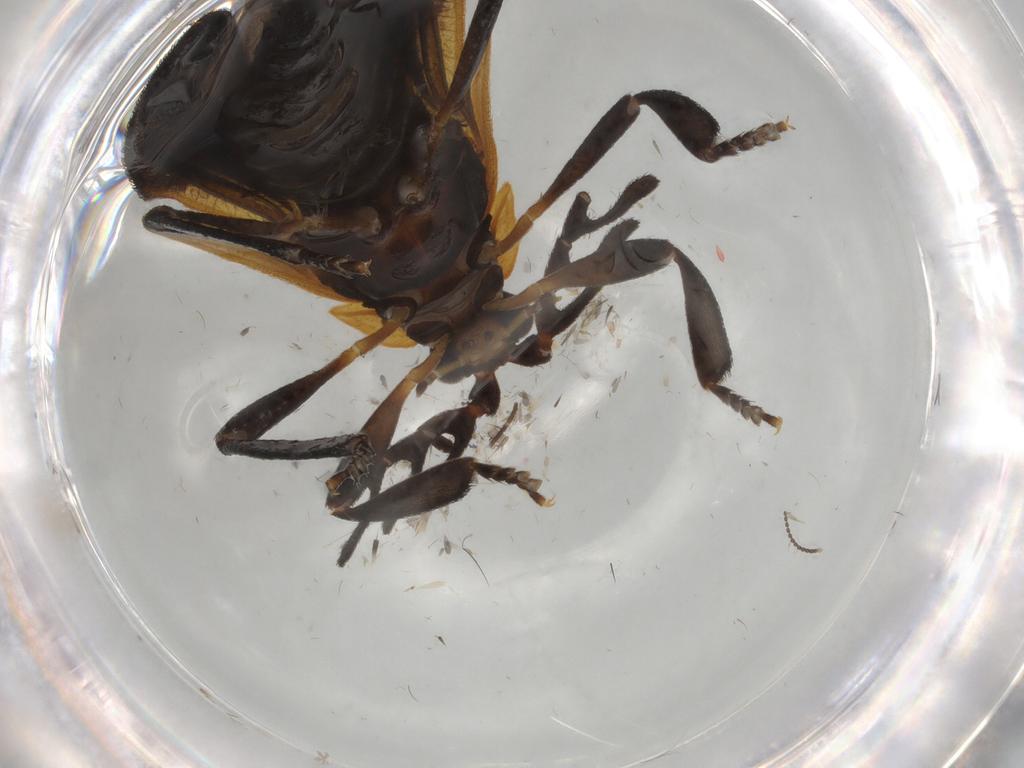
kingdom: Animalia
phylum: Arthropoda
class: Insecta
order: Coleoptera
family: Lycidae
